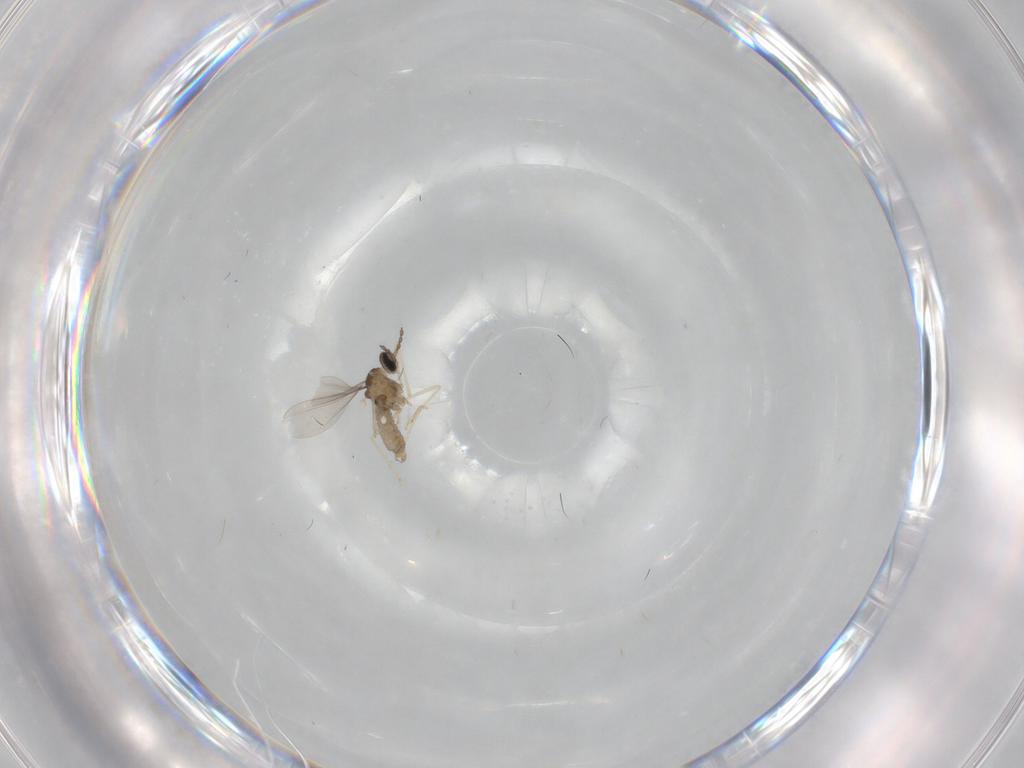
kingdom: Animalia
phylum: Arthropoda
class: Insecta
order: Diptera
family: Cecidomyiidae
